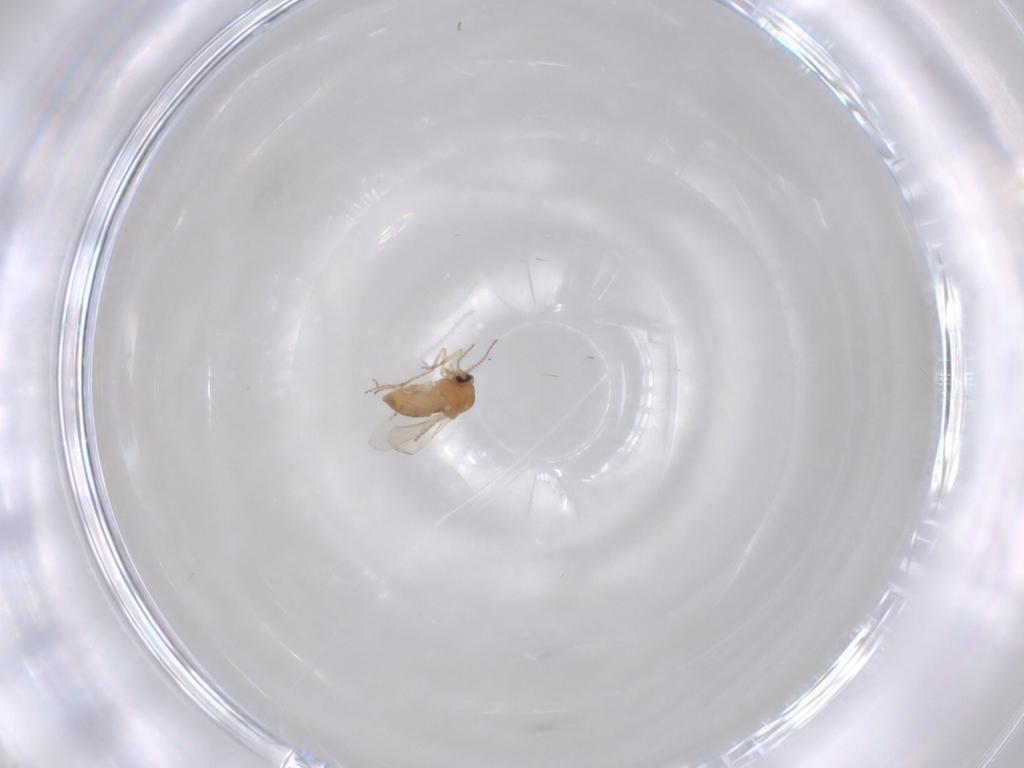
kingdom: Animalia
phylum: Arthropoda
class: Insecta
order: Diptera
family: Ceratopogonidae
